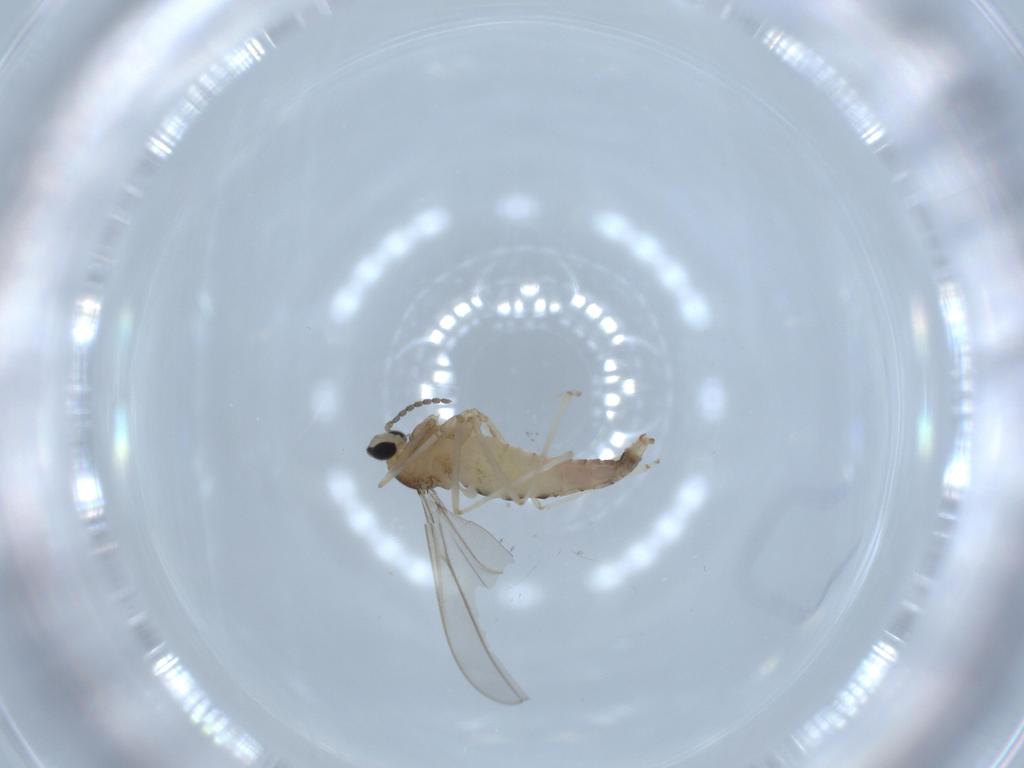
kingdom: Animalia
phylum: Arthropoda
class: Insecta
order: Diptera
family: Cecidomyiidae
